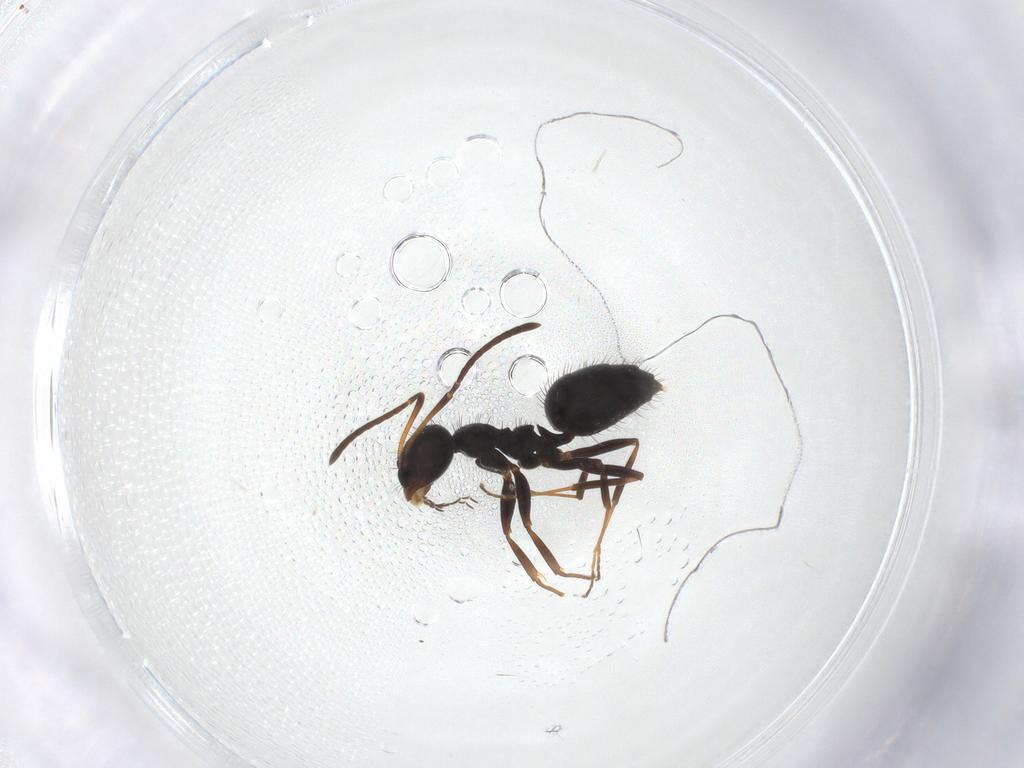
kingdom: Animalia
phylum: Arthropoda
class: Insecta
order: Hymenoptera
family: Formicidae
